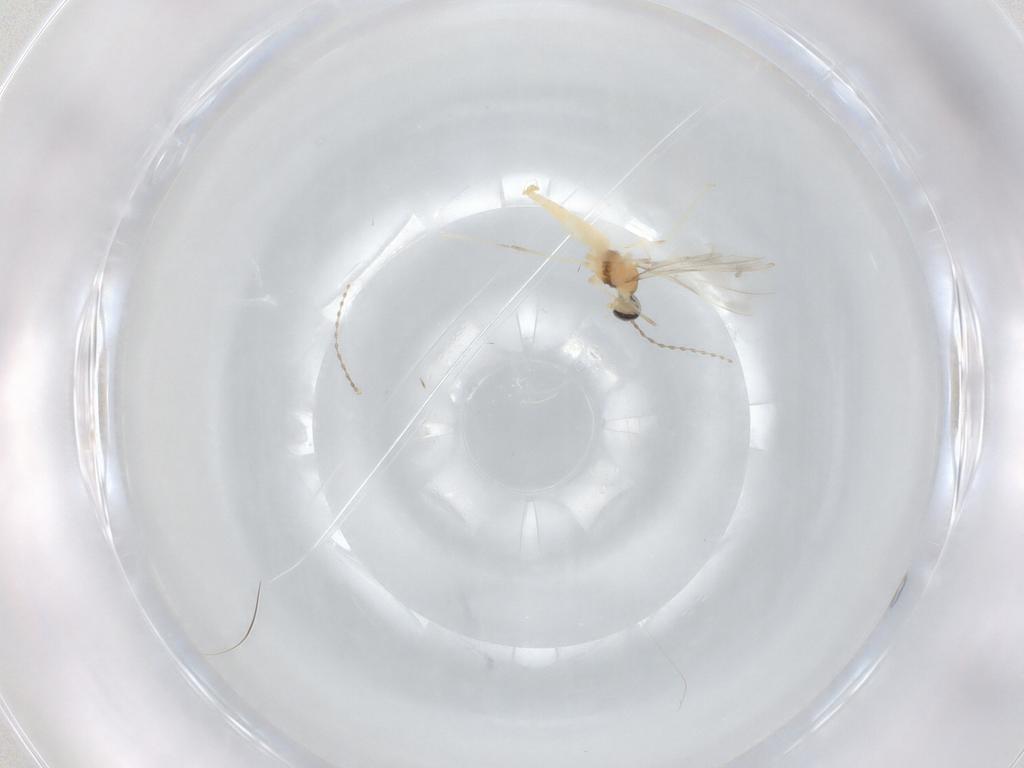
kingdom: Animalia
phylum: Arthropoda
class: Insecta
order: Diptera
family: Cecidomyiidae
